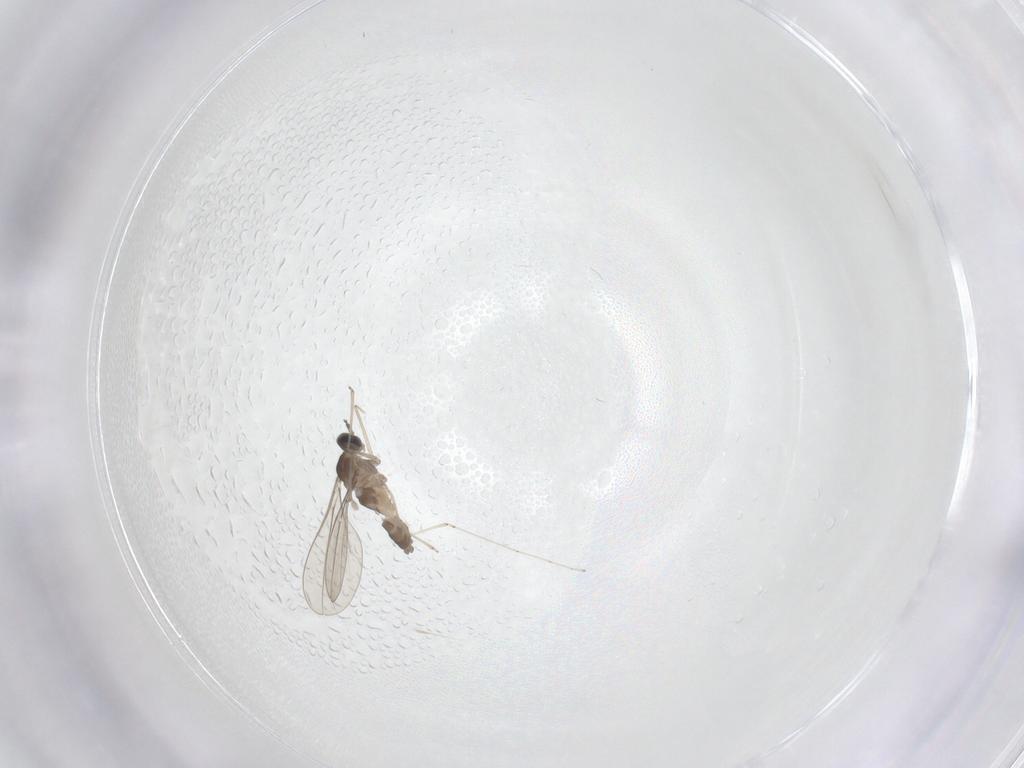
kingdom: Animalia
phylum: Arthropoda
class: Insecta
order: Diptera
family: Cecidomyiidae
